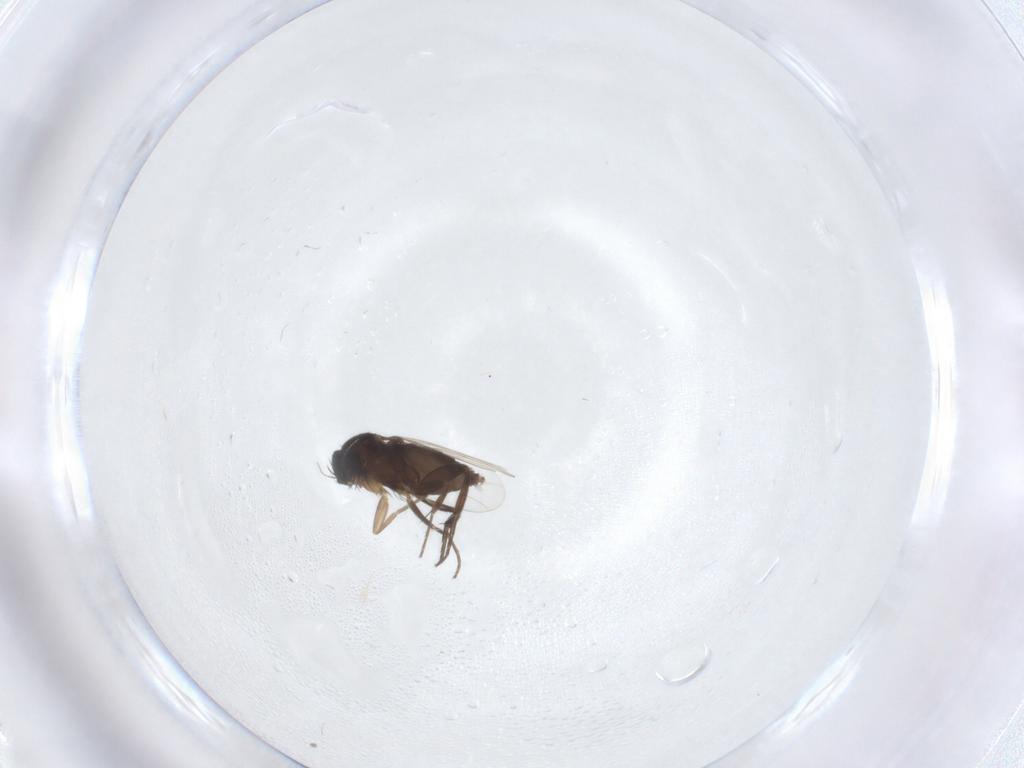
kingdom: Animalia
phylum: Arthropoda
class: Insecta
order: Diptera
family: Phoridae
